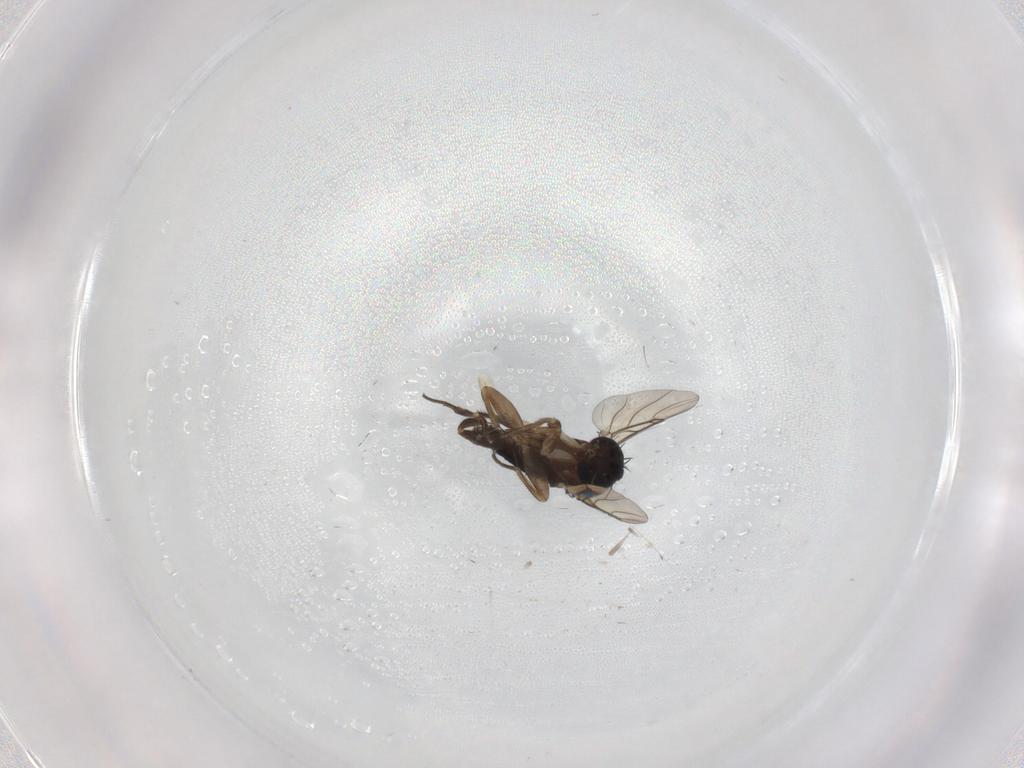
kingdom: Animalia
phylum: Arthropoda
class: Insecta
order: Diptera
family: Phoridae
